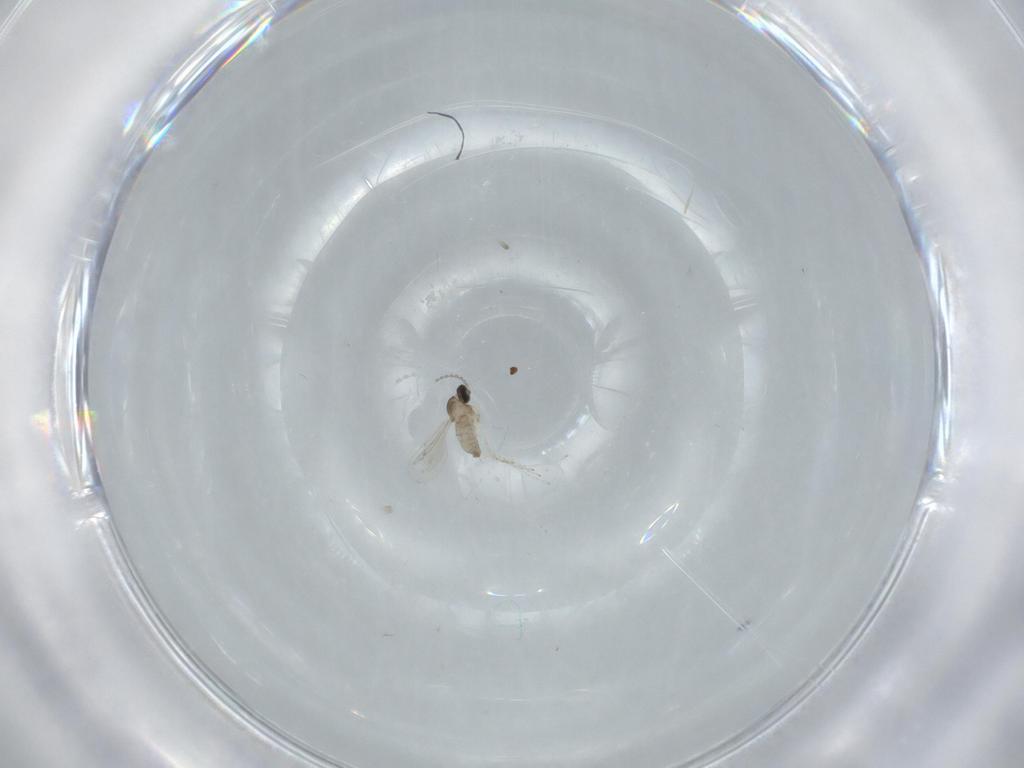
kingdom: Animalia
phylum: Arthropoda
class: Insecta
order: Diptera
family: Cecidomyiidae
